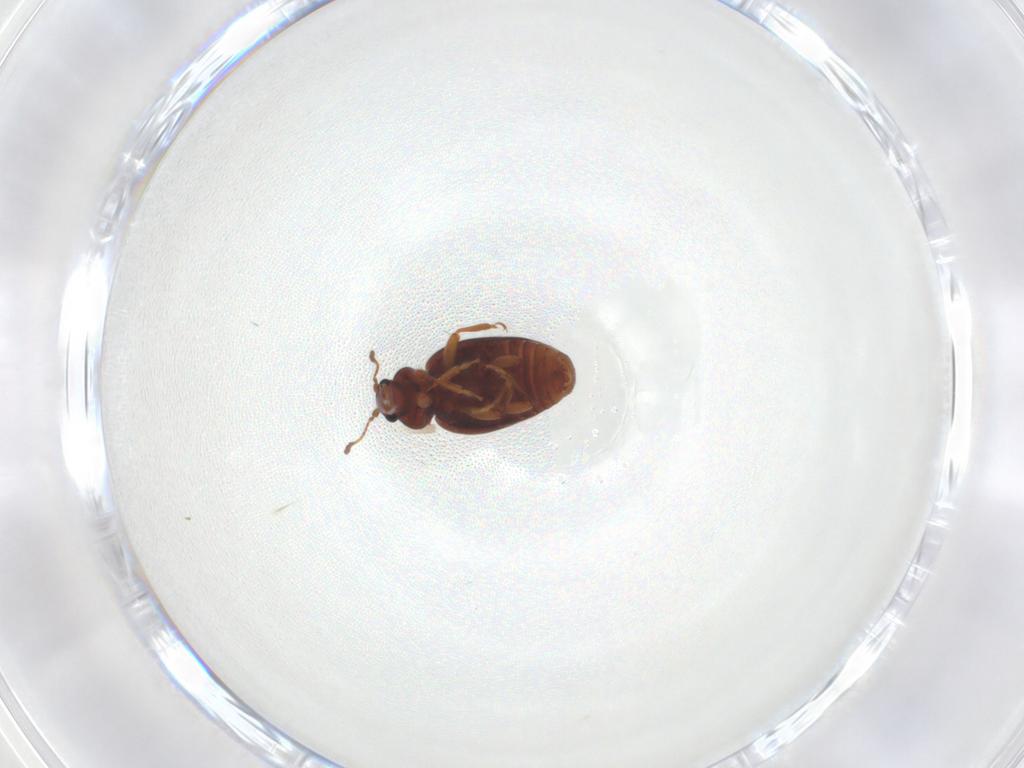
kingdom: Animalia
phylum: Arthropoda
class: Insecta
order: Coleoptera
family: Latridiidae
